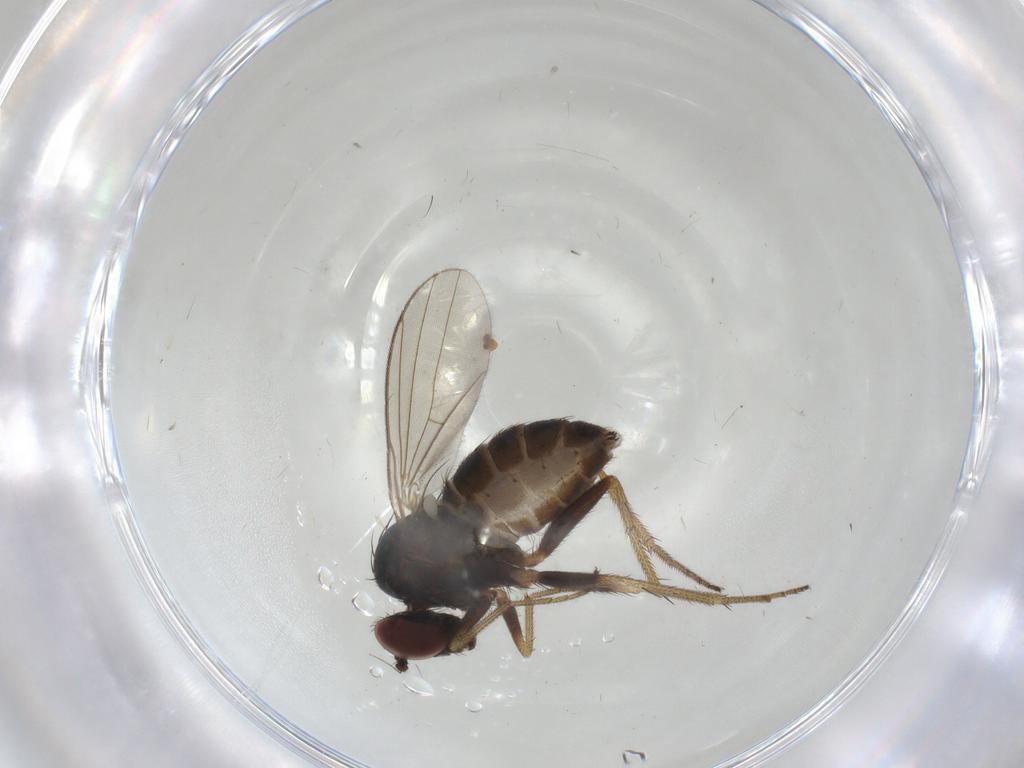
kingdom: Animalia
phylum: Arthropoda
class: Insecta
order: Diptera
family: Dolichopodidae
